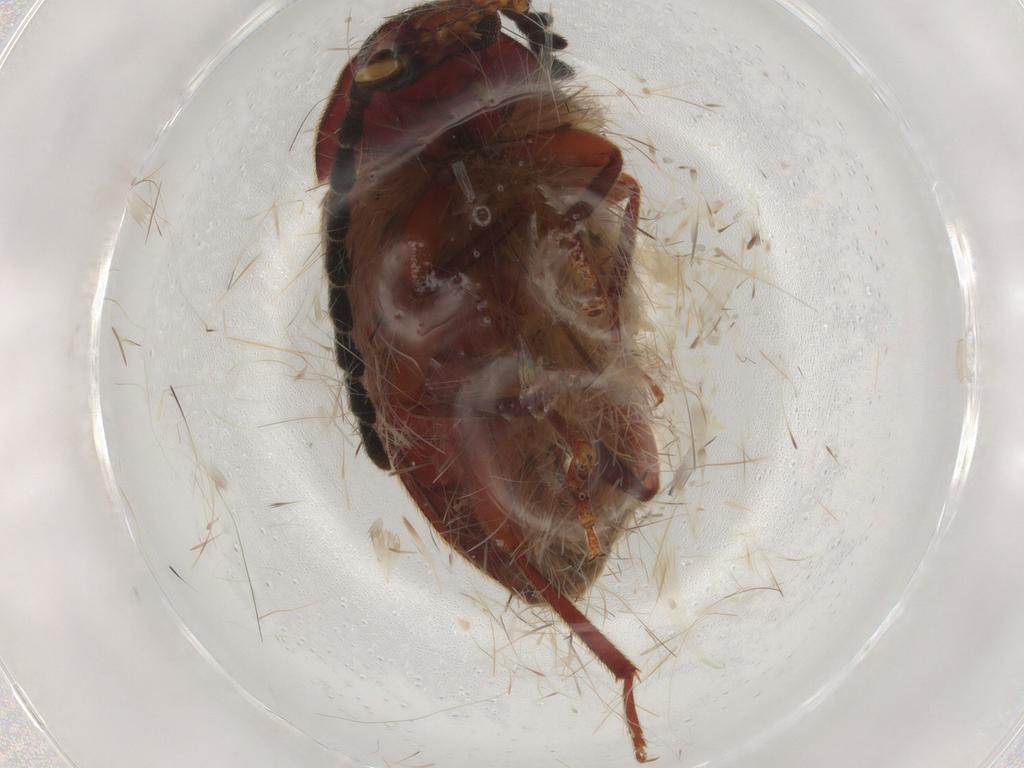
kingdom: Animalia
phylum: Arthropoda
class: Insecta
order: Coleoptera
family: Tenebrionidae
